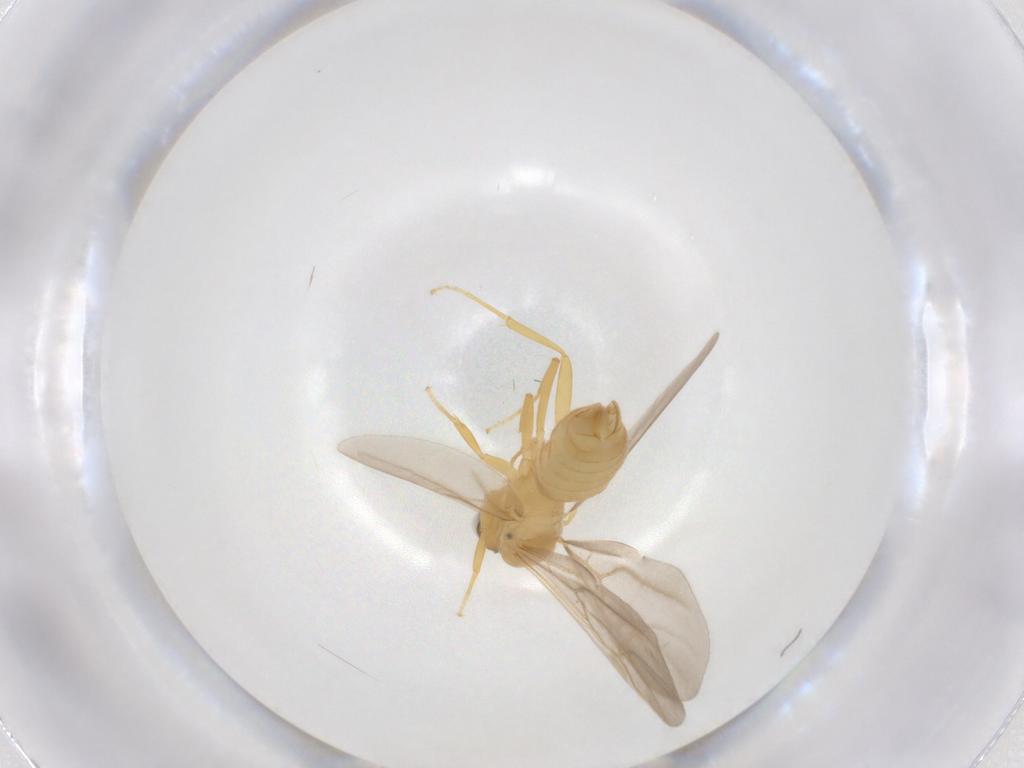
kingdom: Animalia
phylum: Arthropoda
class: Insecta
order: Hymenoptera
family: Formicidae
